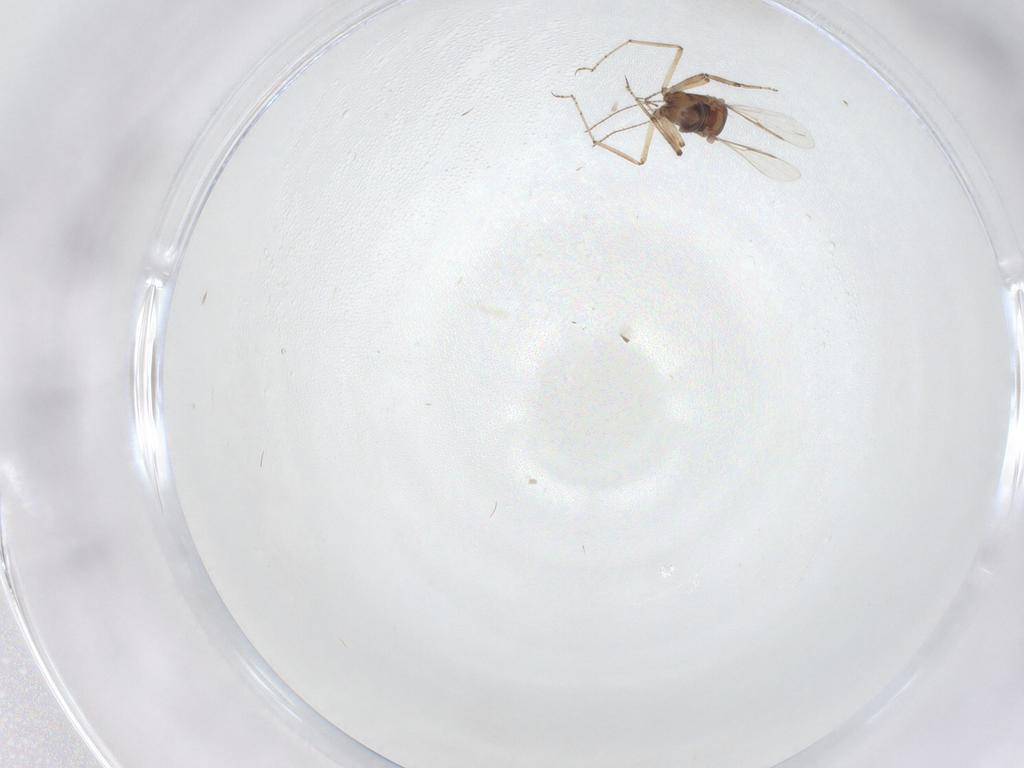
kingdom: Animalia
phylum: Arthropoda
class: Insecta
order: Diptera
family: Ceratopogonidae
